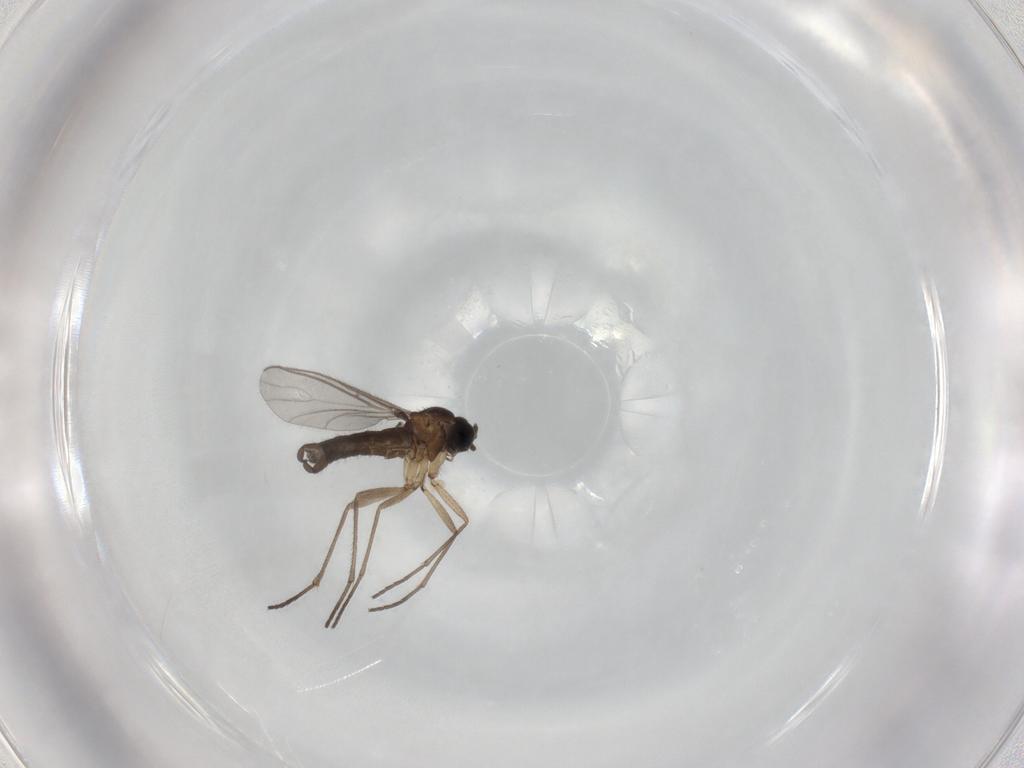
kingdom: Animalia
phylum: Arthropoda
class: Insecta
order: Diptera
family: Sciaridae
